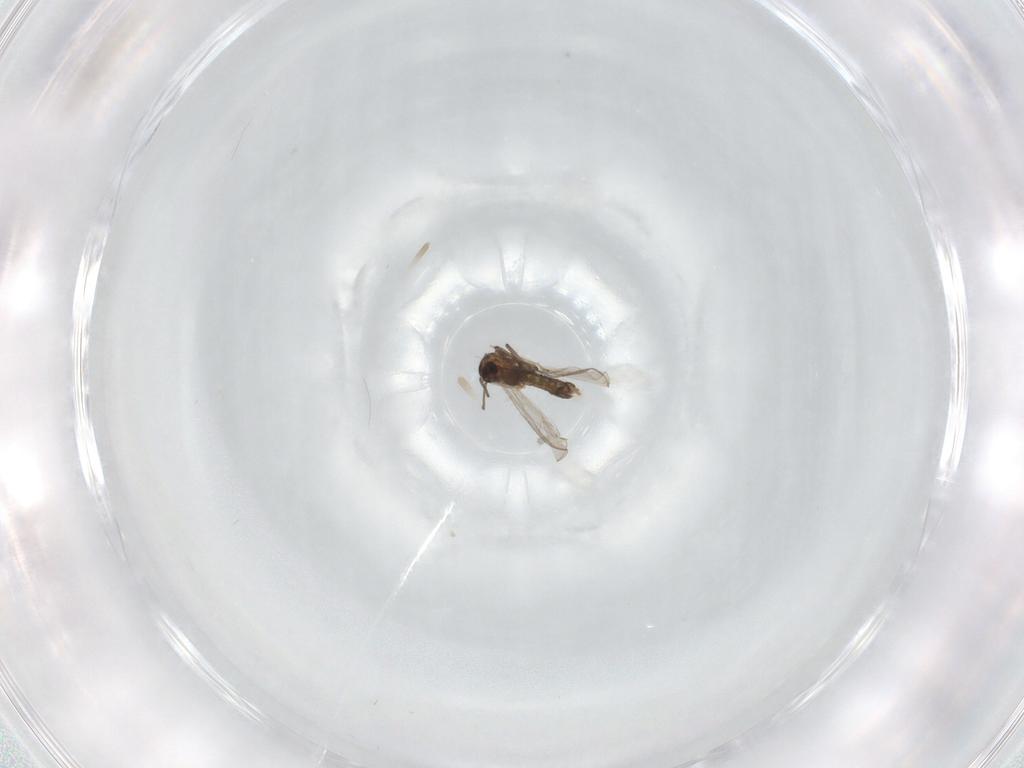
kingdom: Animalia
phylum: Arthropoda
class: Insecta
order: Diptera
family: Chironomidae
